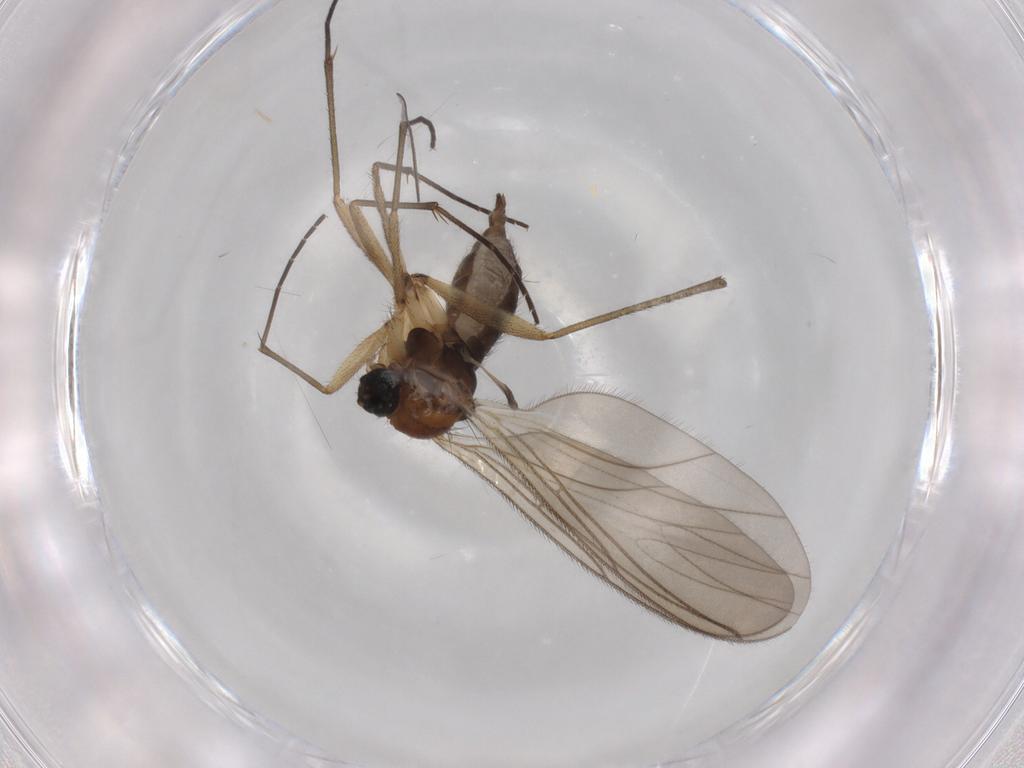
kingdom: Animalia
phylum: Arthropoda
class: Insecta
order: Diptera
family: Sciaridae
